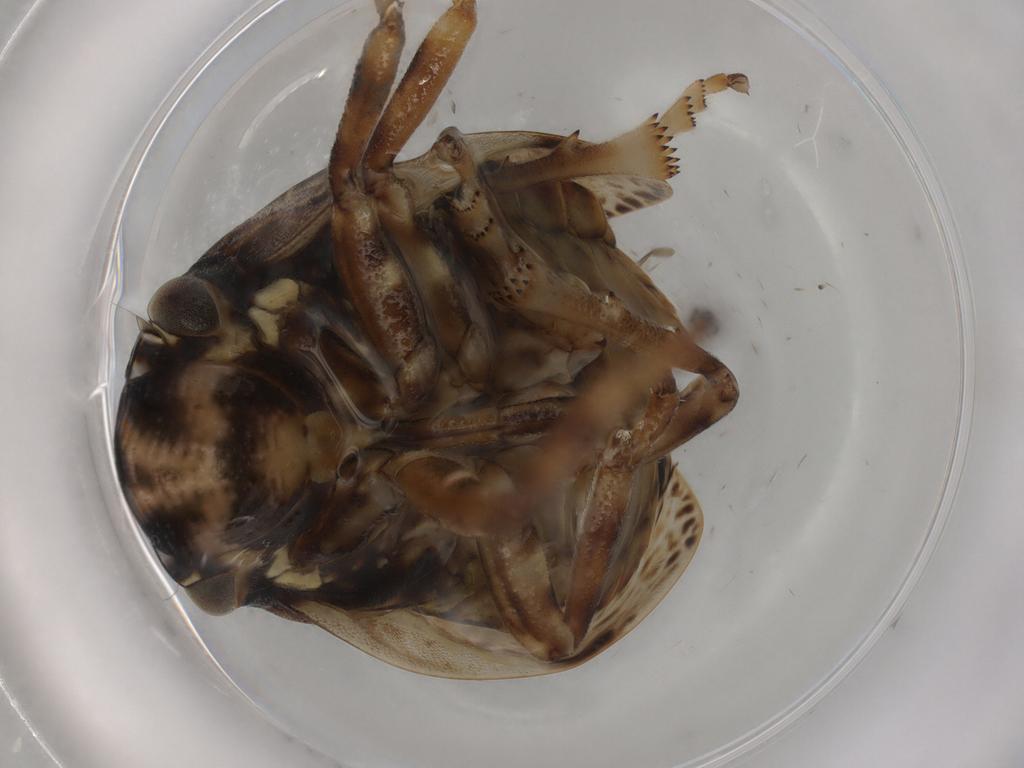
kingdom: Animalia
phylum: Arthropoda
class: Insecta
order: Hemiptera
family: Aphrophoridae
